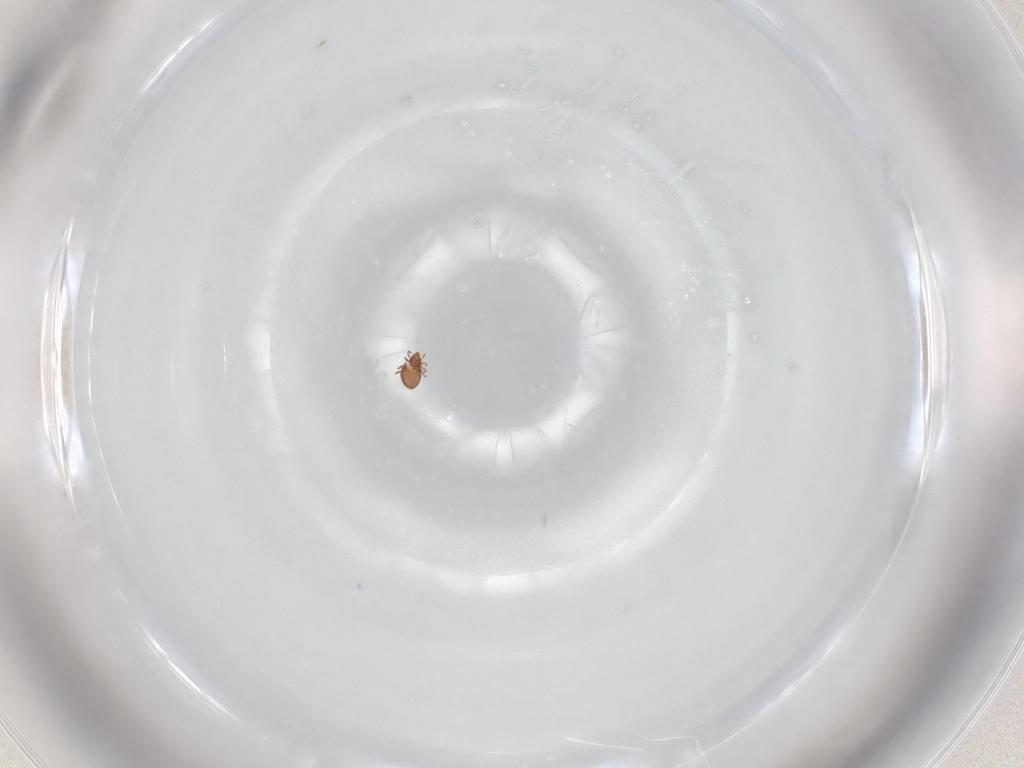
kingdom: Animalia
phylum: Arthropoda
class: Arachnida
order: Sarcoptiformes
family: Oppiidae
